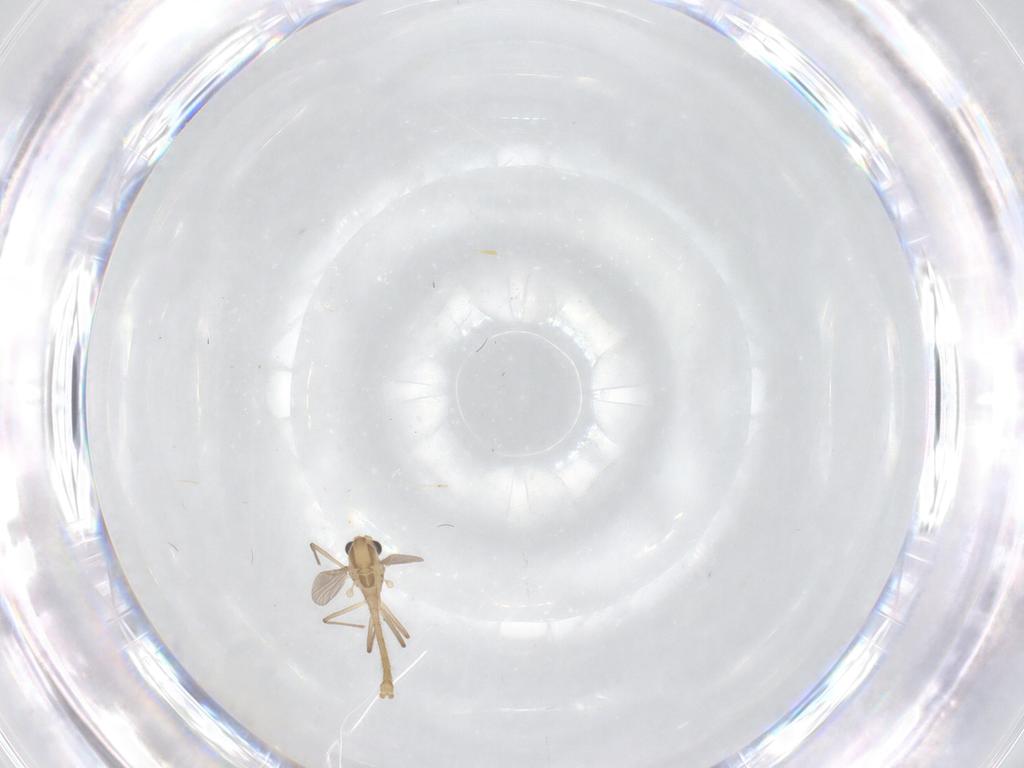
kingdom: Animalia
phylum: Arthropoda
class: Insecta
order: Diptera
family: Chironomidae
